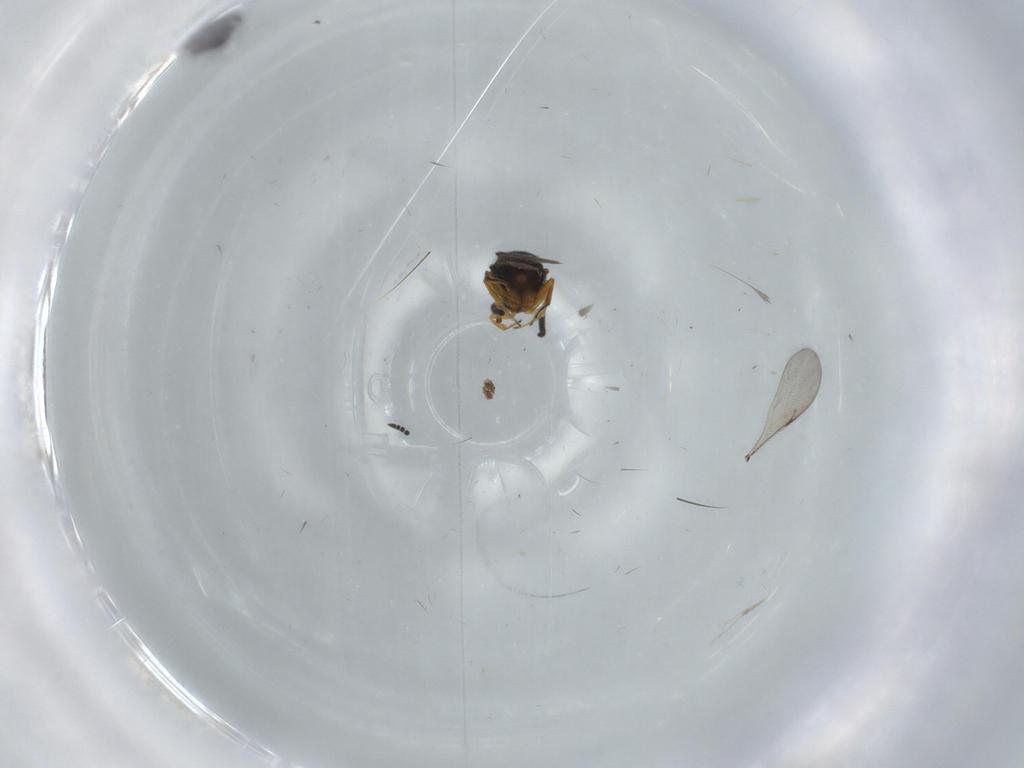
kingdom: Animalia
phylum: Arthropoda
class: Insecta
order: Coleoptera
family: Curculionidae
